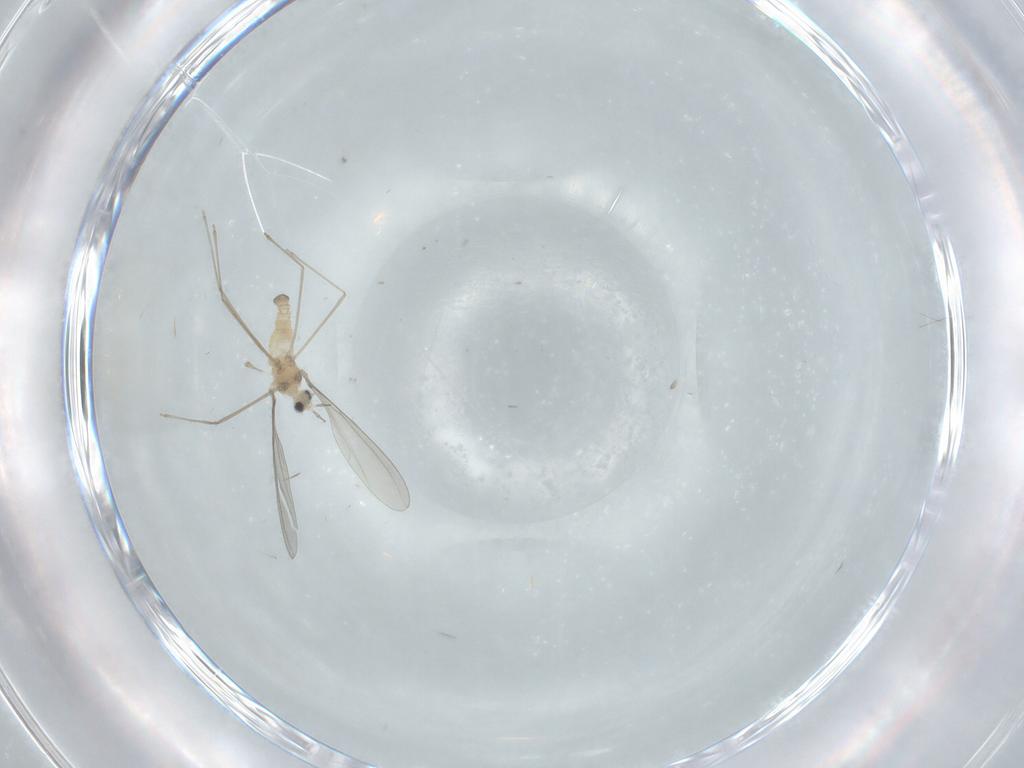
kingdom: Animalia
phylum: Arthropoda
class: Insecta
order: Diptera
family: Cecidomyiidae
